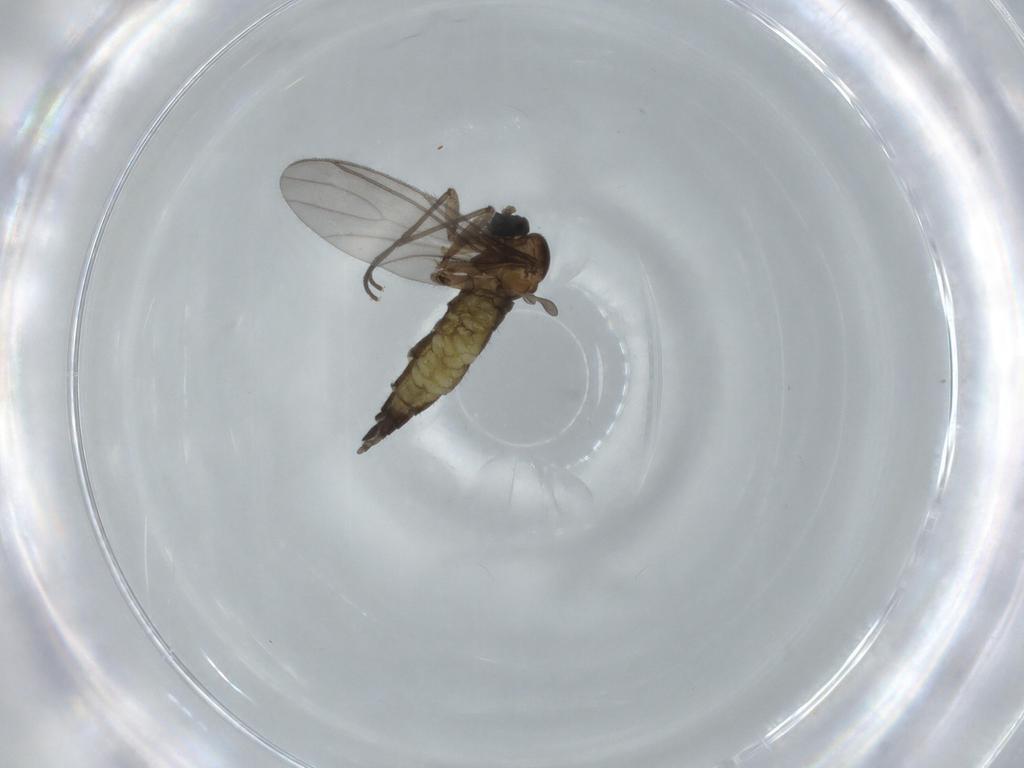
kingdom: Animalia
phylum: Arthropoda
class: Insecta
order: Diptera
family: Sciaridae
